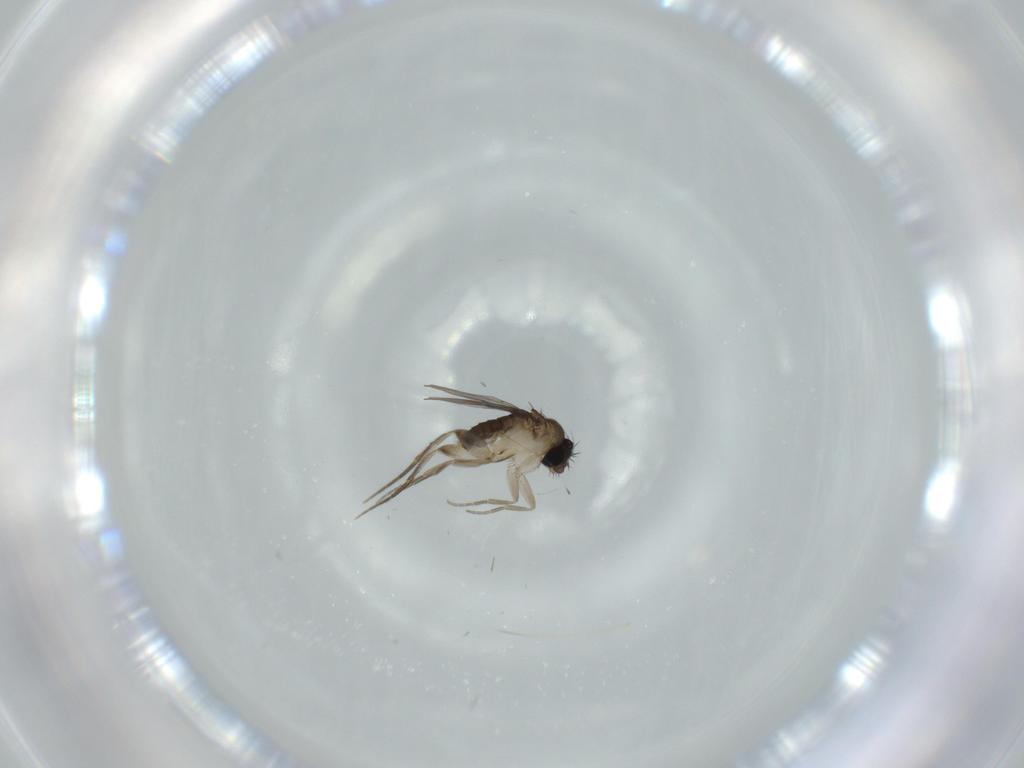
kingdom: Animalia
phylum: Arthropoda
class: Insecta
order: Diptera
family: Phoridae
